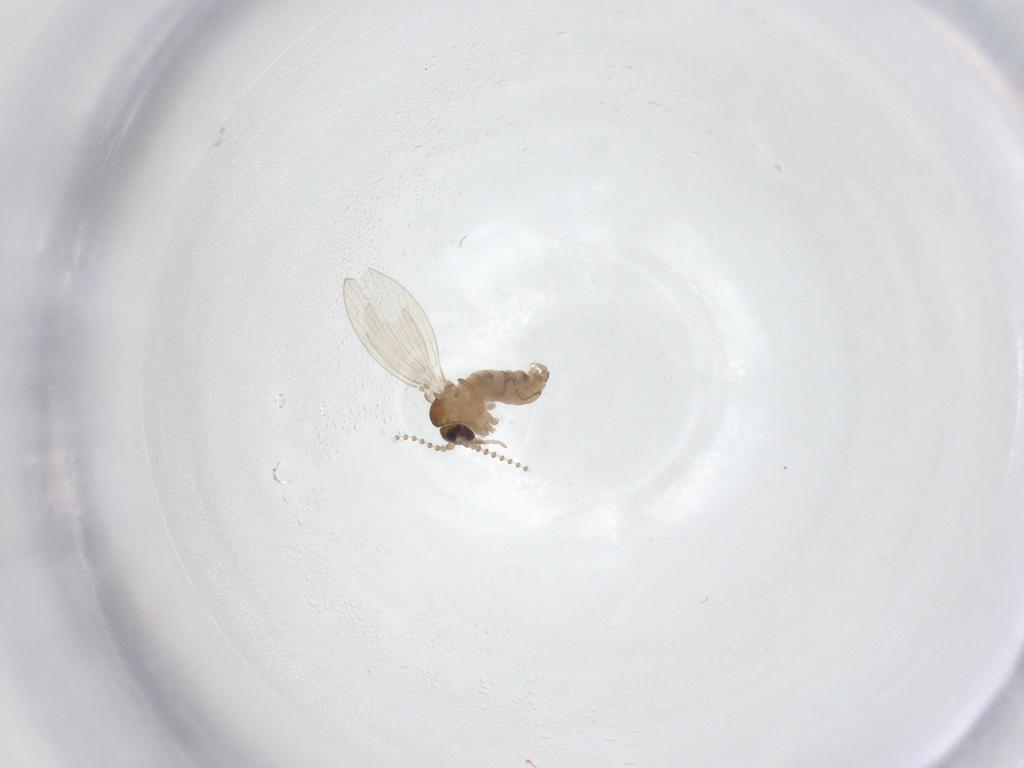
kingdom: Animalia
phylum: Arthropoda
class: Insecta
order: Diptera
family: Psychodidae
